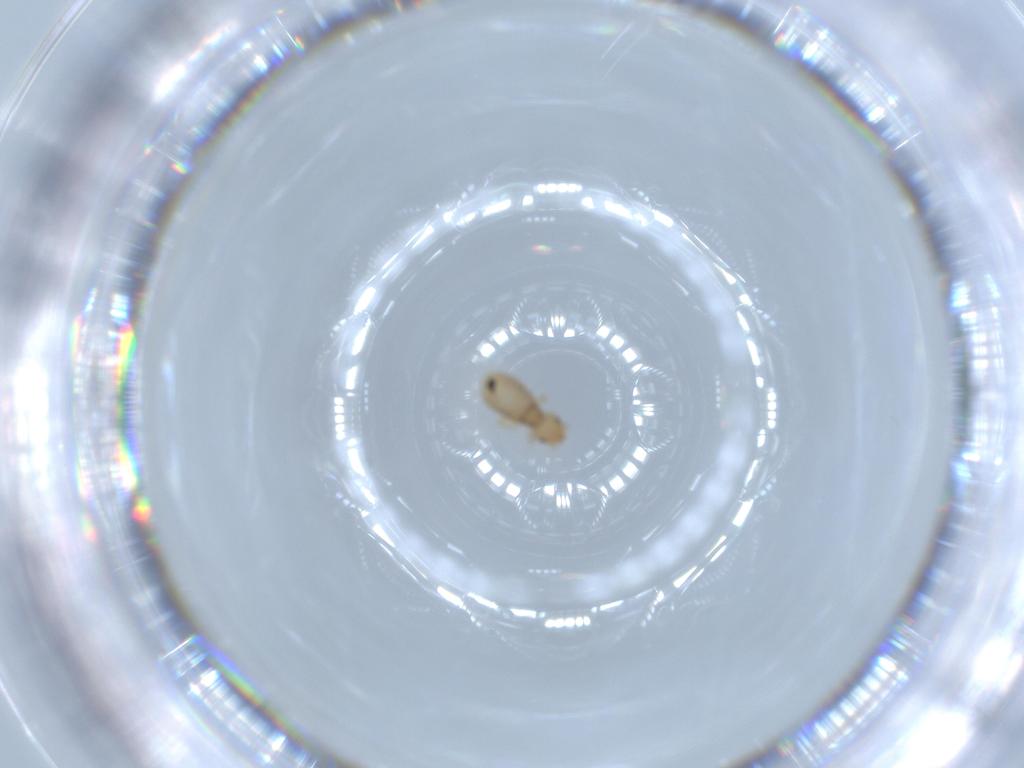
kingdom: Animalia
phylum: Arthropoda
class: Insecta
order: Psocodea
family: Liposcelididae
